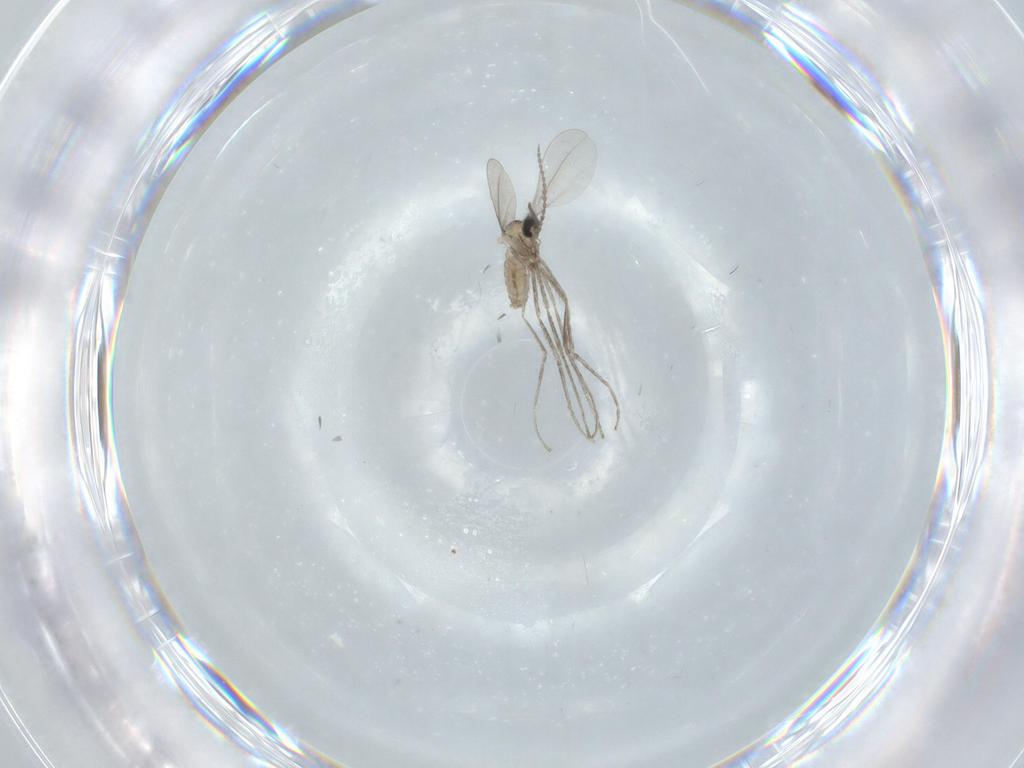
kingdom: Animalia
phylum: Arthropoda
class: Insecta
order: Diptera
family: Cecidomyiidae
